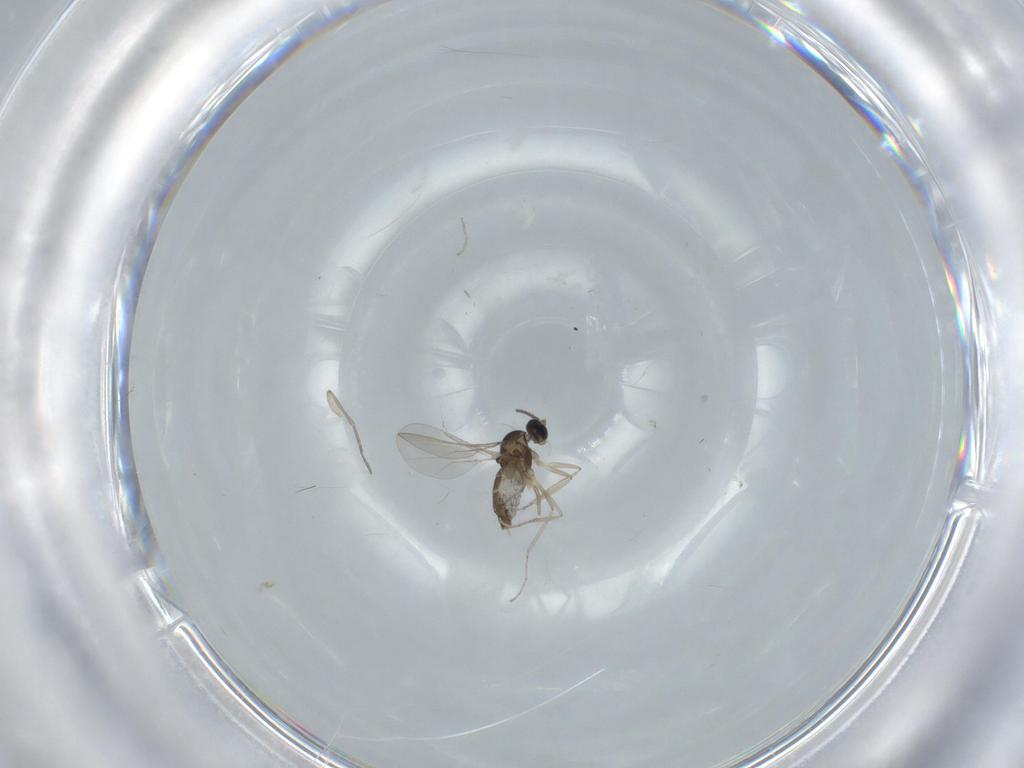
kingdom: Animalia
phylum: Arthropoda
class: Insecta
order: Diptera
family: Cecidomyiidae
